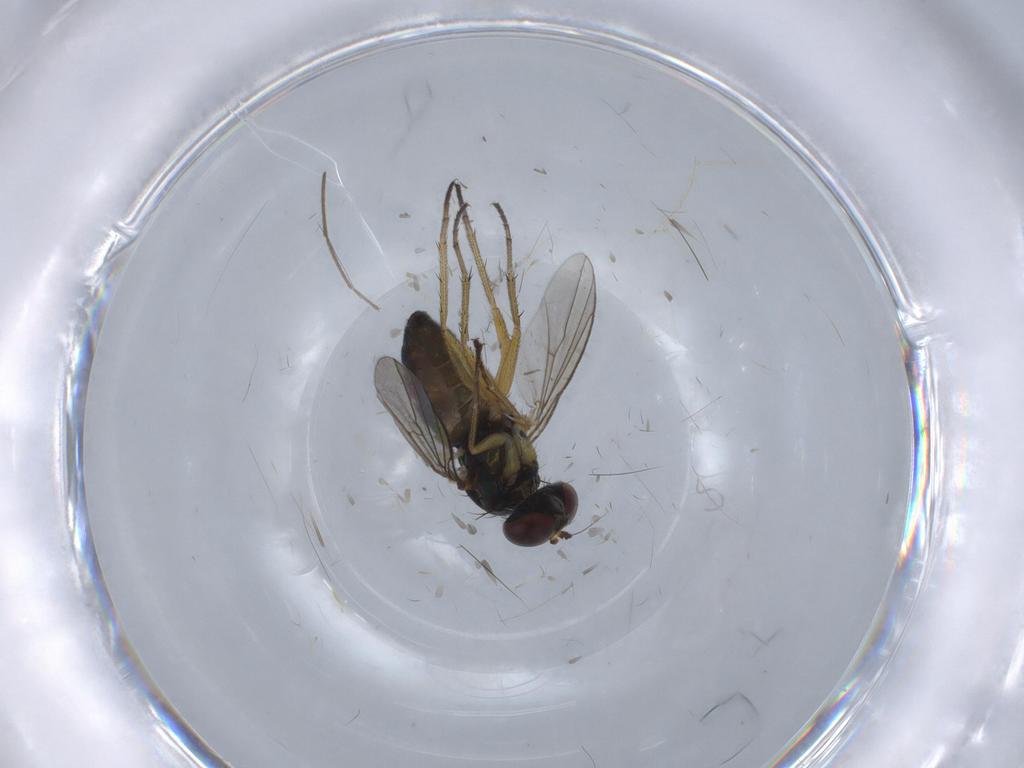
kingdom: Animalia
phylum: Arthropoda
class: Insecta
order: Diptera
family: Cecidomyiidae
